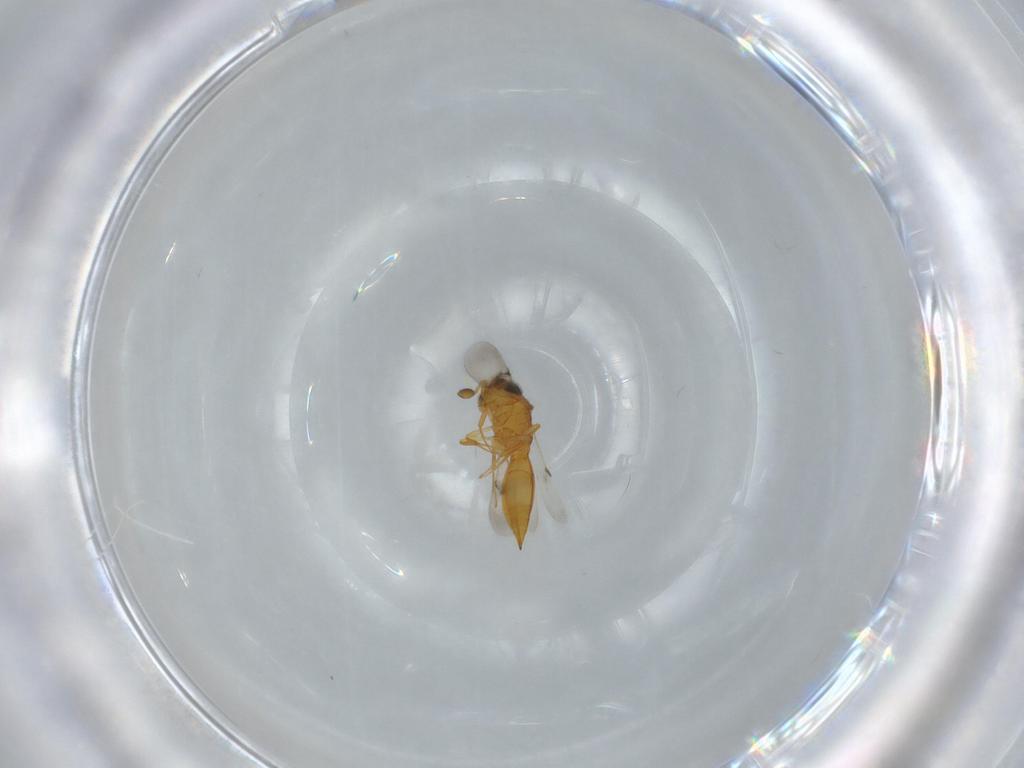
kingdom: Animalia
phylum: Arthropoda
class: Insecta
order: Hymenoptera
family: Scelionidae
